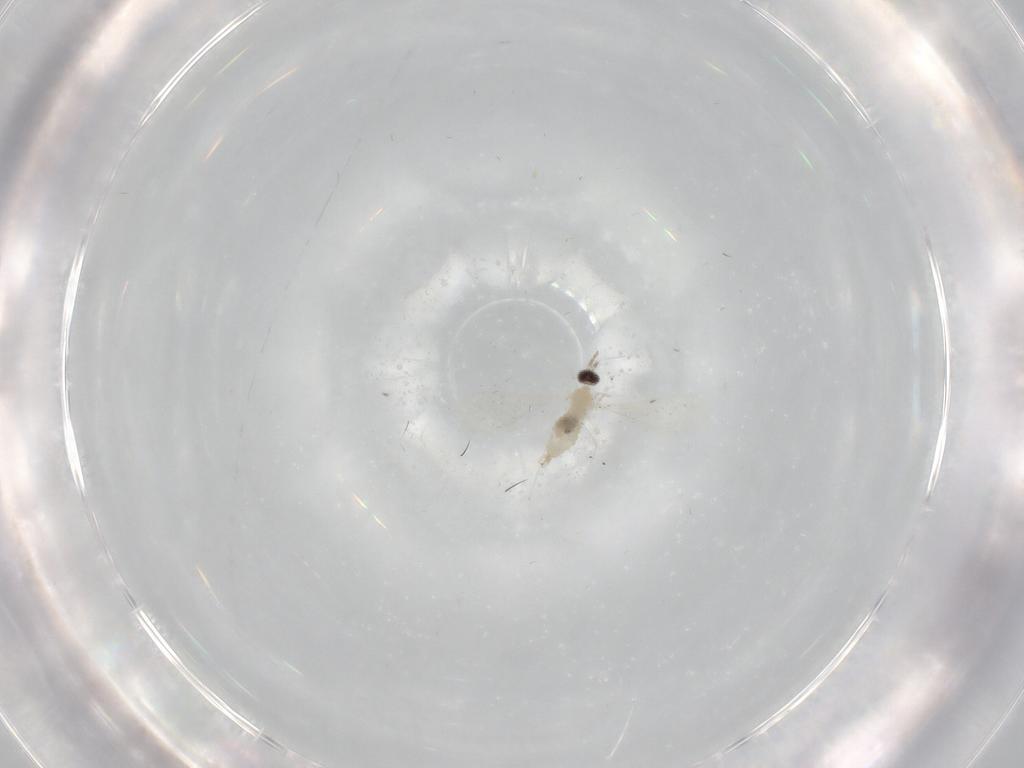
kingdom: Animalia
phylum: Arthropoda
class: Insecta
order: Diptera
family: Cecidomyiidae
